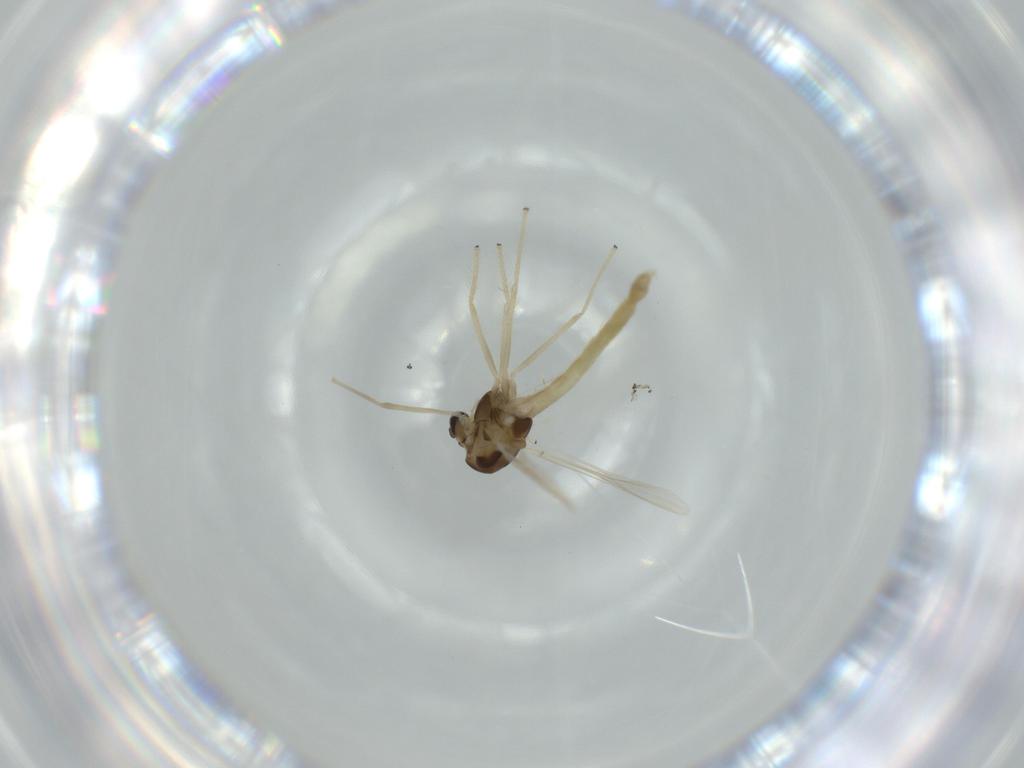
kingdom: Animalia
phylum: Arthropoda
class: Insecta
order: Diptera
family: Chironomidae
